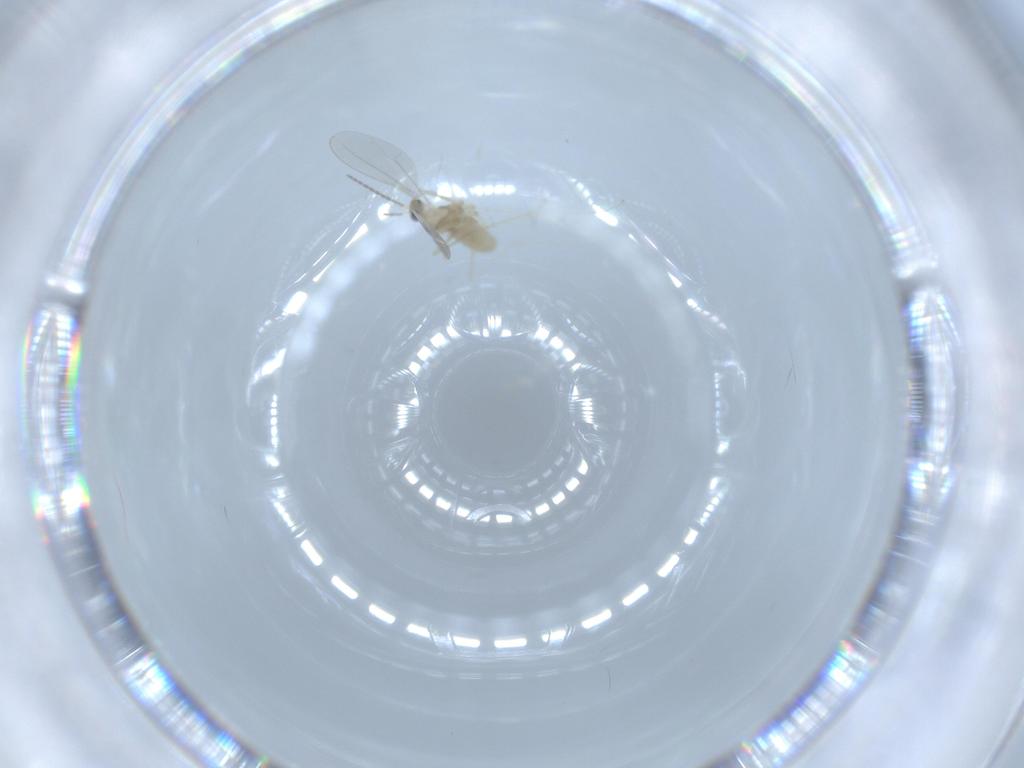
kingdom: Animalia
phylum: Arthropoda
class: Insecta
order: Diptera
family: Sciaridae
